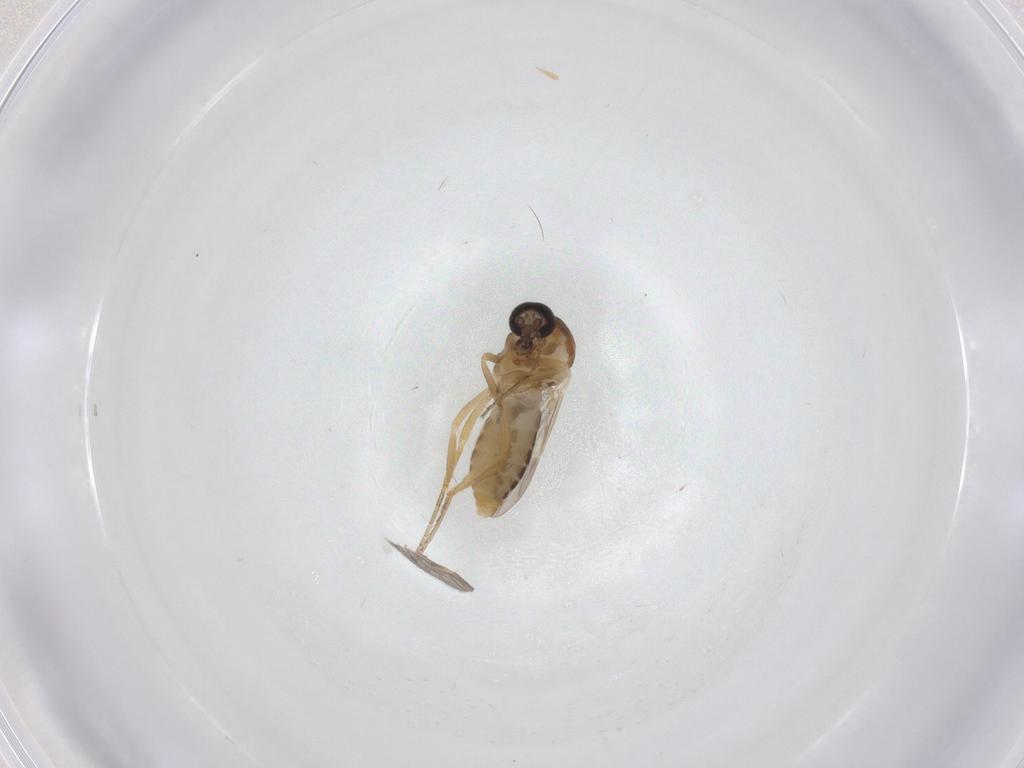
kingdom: Animalia
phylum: Arthropoda
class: Insecta
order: Diptera
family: Ceratopogonidae
